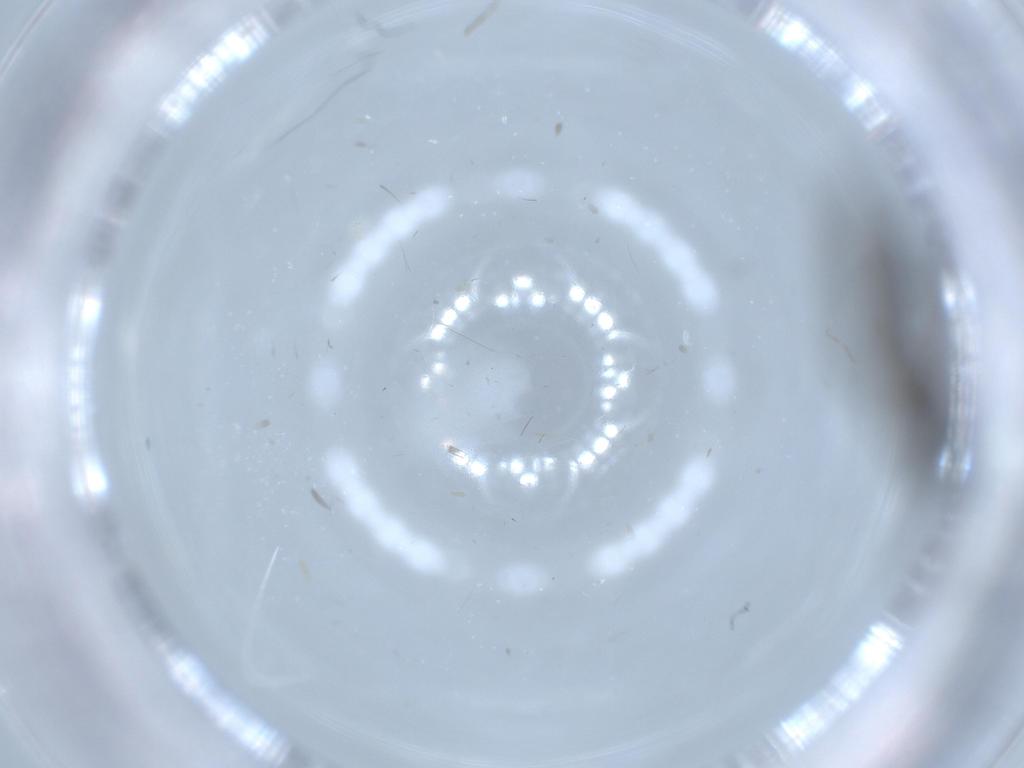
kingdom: Animalia
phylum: Arthropoda
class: Insecta
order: Diptera
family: Sciaridae
